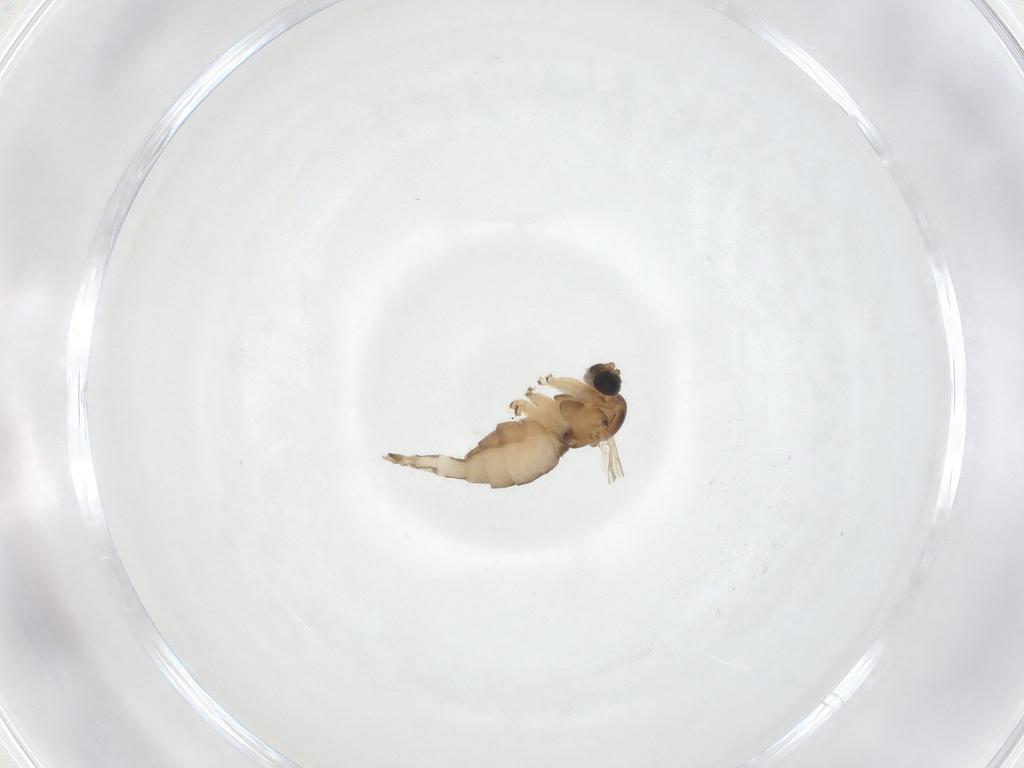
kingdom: Animalia
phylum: Arthropoda
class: Insecta
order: Diptera
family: Sciaridae
